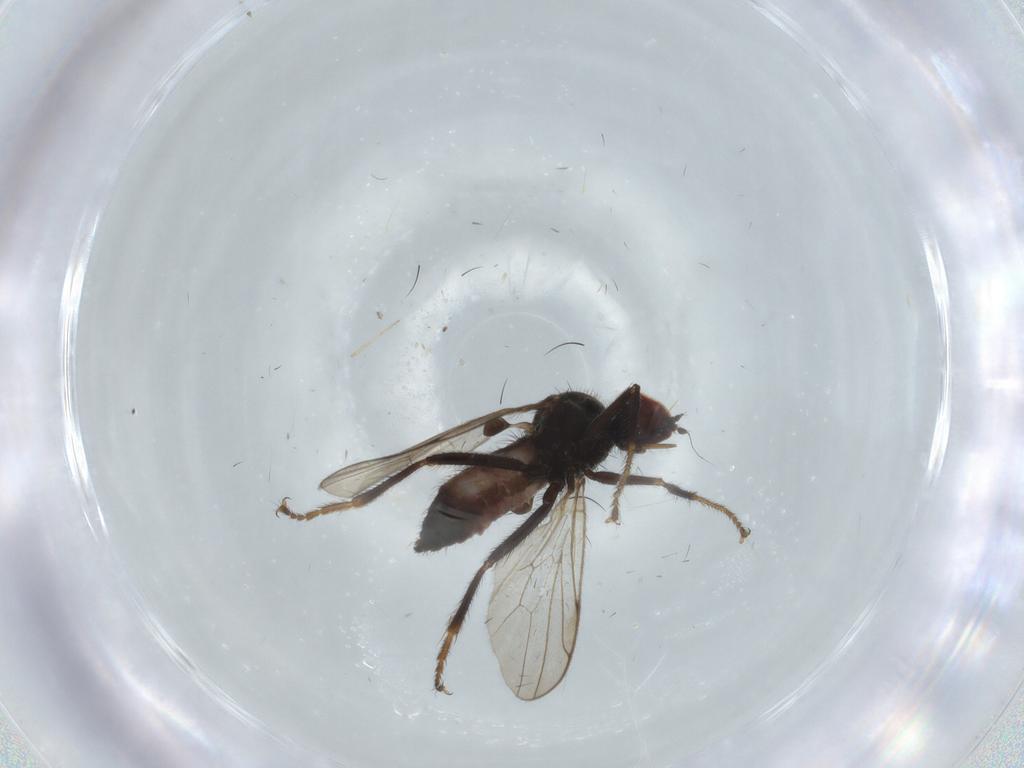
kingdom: Animalia
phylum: Arthropoda
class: Insecta
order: Diptera
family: Hybotidae
